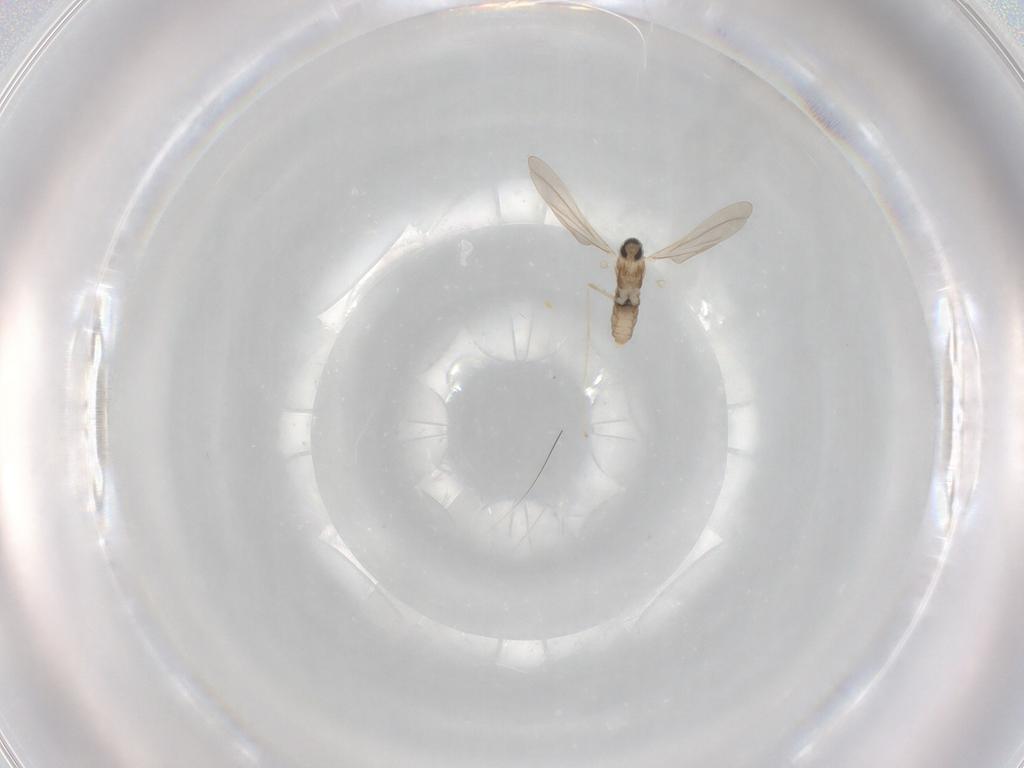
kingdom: Animalia
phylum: Arthropoda
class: Insecta
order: Diptera
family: Cecidomyiidae
